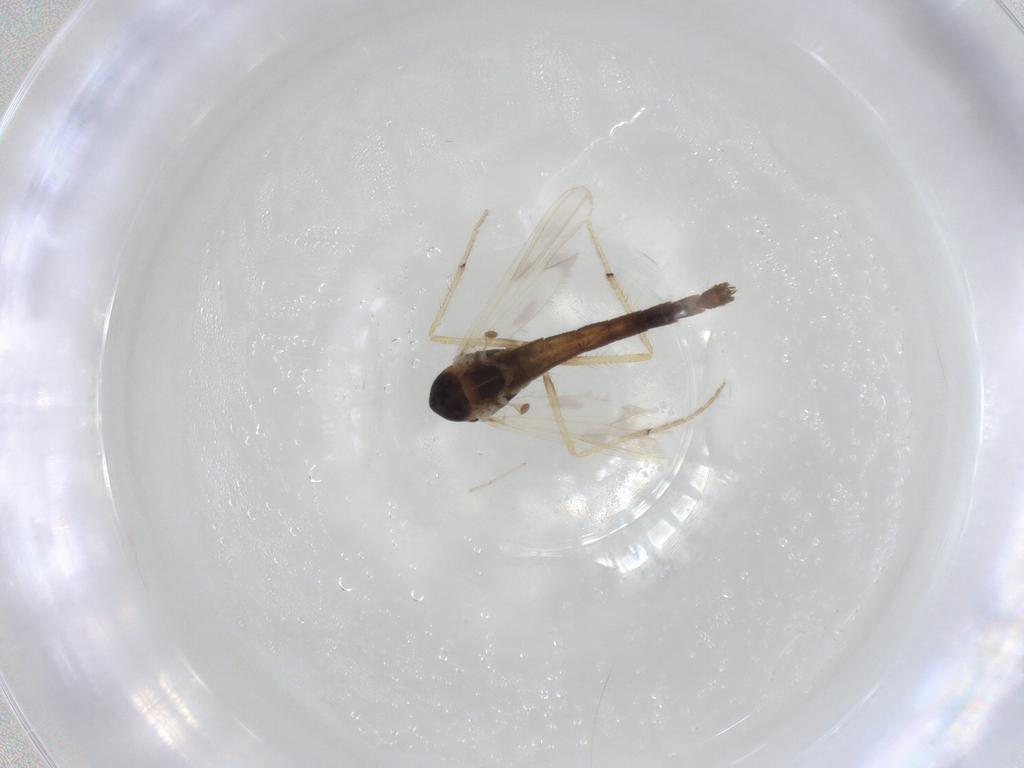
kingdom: Animalia
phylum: Arthropoda
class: Insecta
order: Diptera
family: Chironomidae
